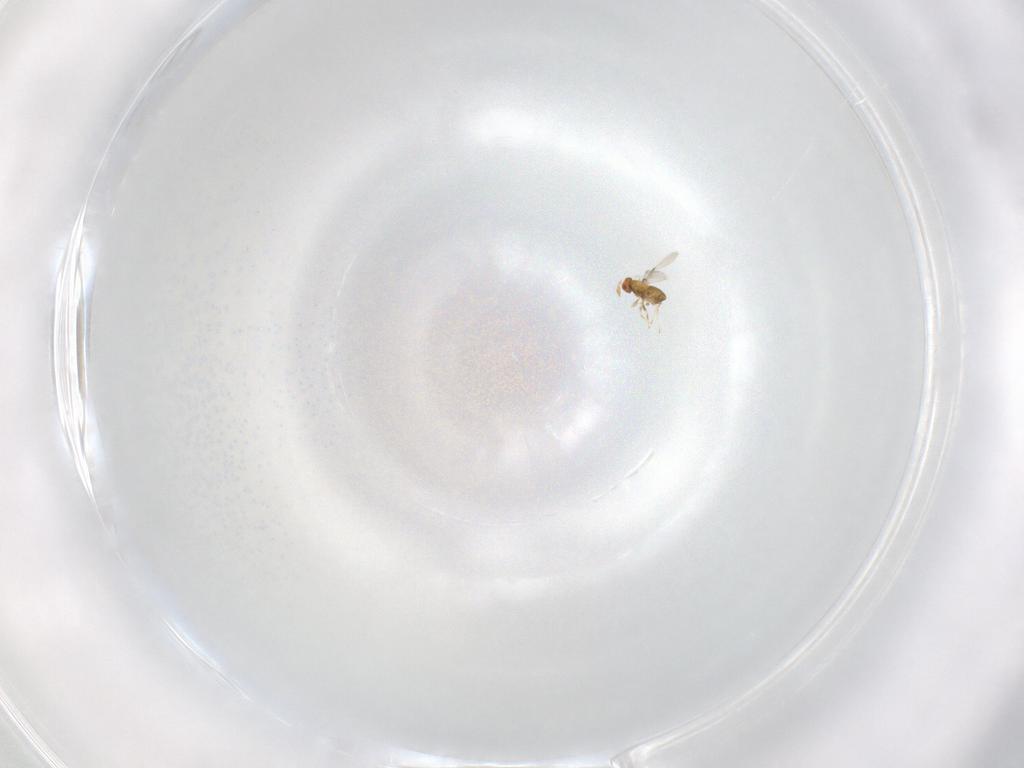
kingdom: Animalia
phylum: Arthropoda
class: Insecta
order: Hymenoptera
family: Scelionidae
